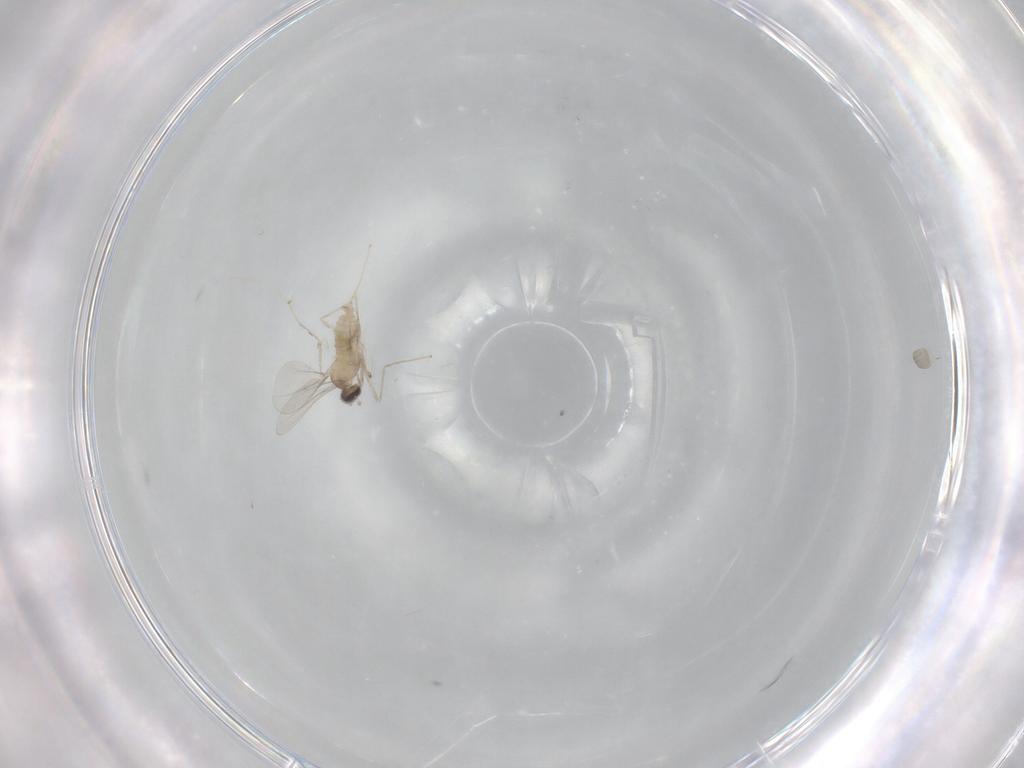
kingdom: Animalia
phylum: Arthropoda
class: Insecta
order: Diptera
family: Cecidomyiidae
